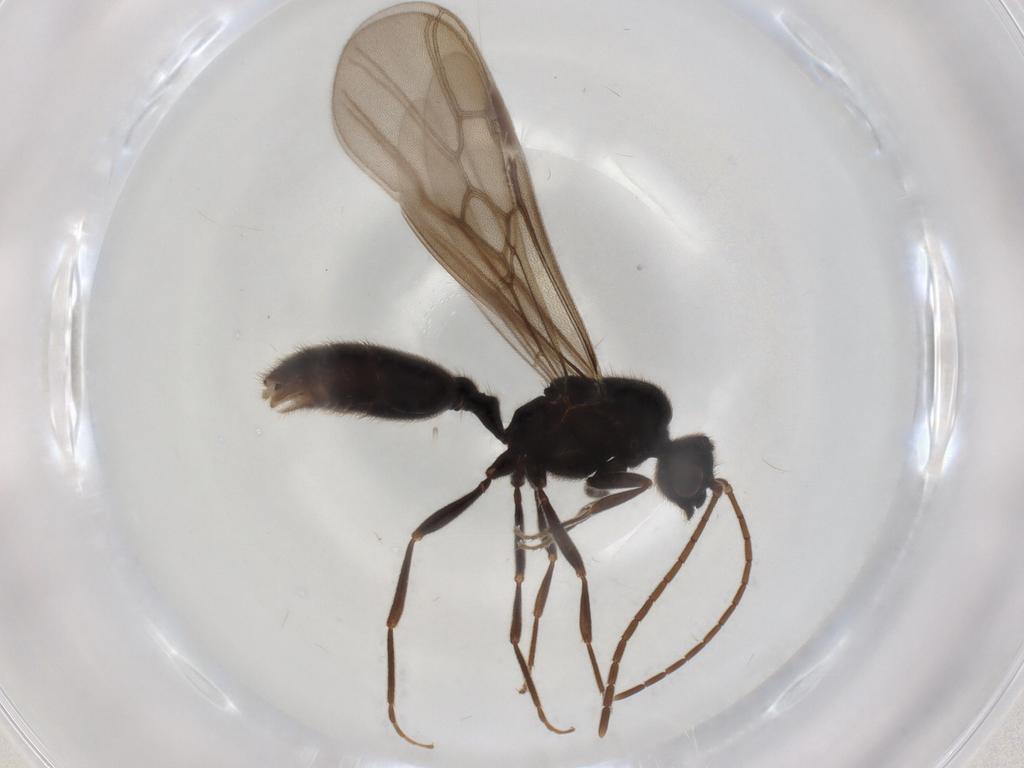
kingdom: Animalia
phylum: Arthropoda
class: Insecta
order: Hymenoptera
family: Formicidae
